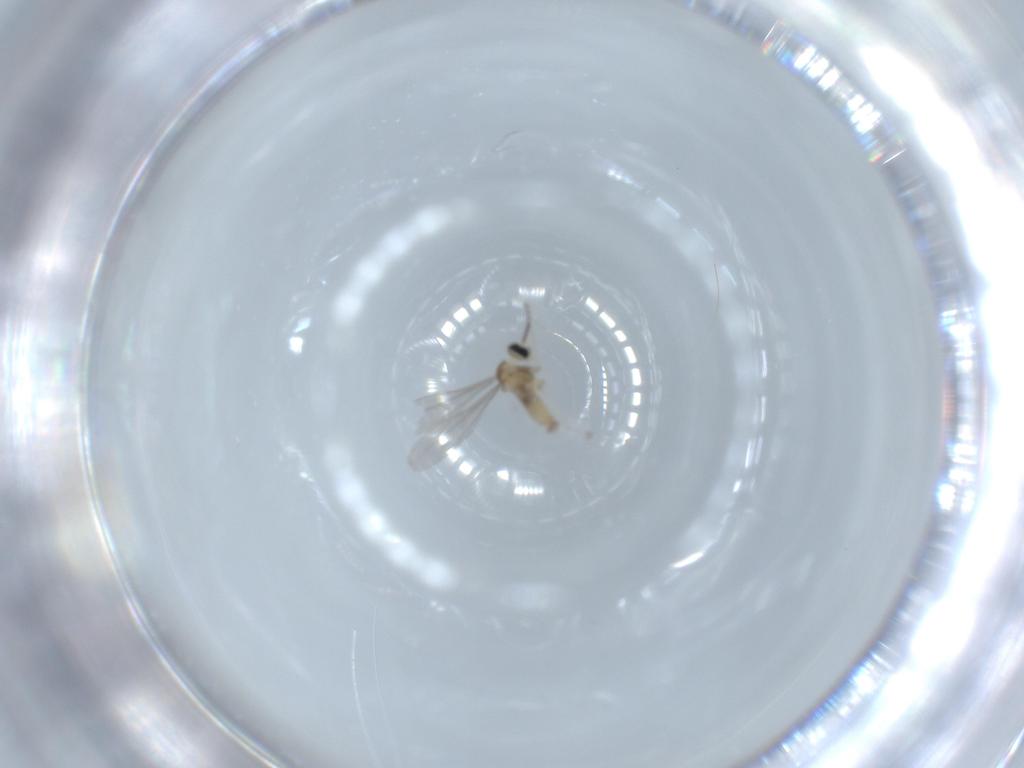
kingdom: Animalia
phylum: Arthropoda
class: Insecta
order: Diptera
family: Cecidomyiidae
